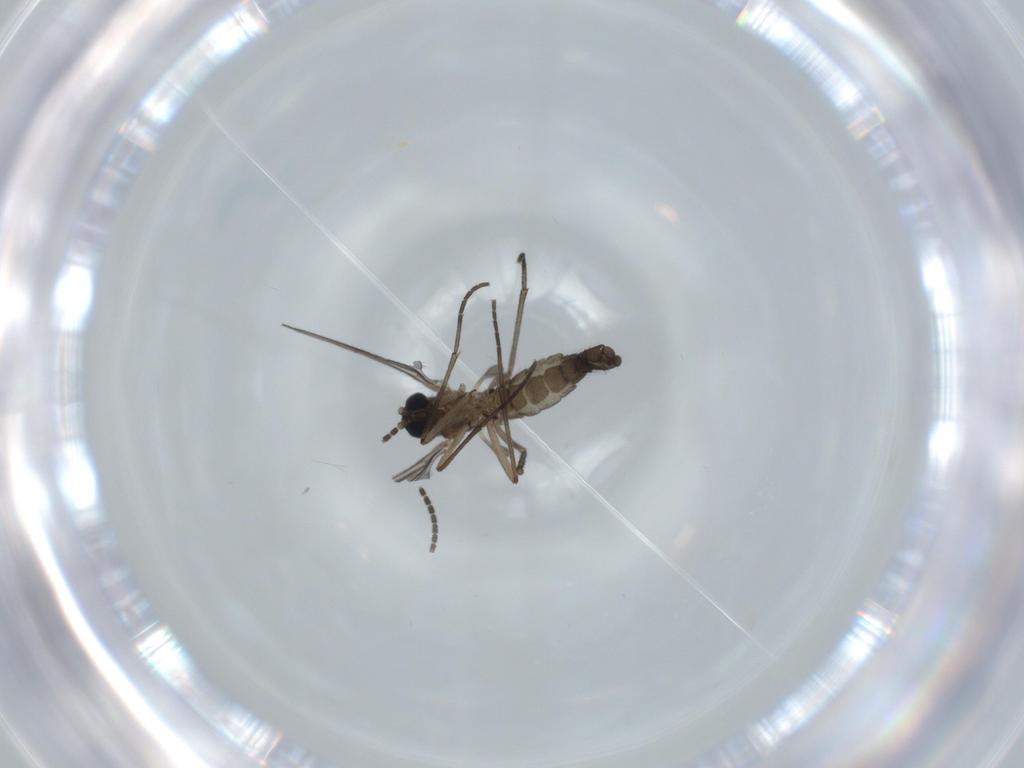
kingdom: Animalia
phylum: Arthropoda
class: Insecta
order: Diptera
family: Sciaridae
